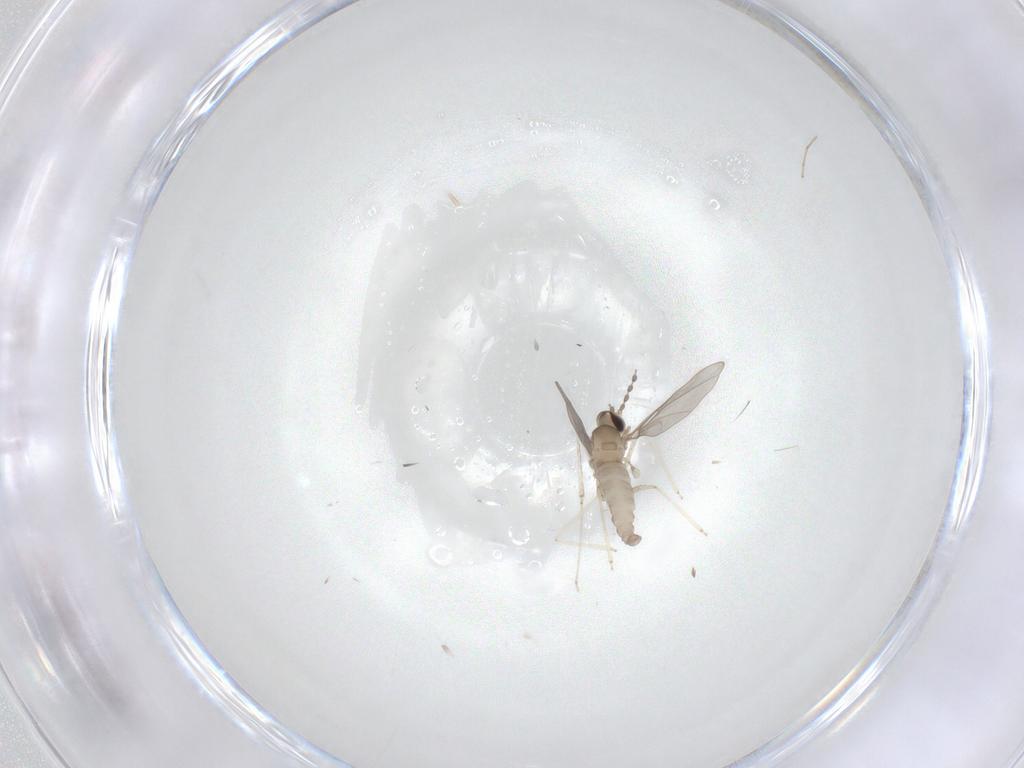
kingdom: Animalia
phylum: Arthropoda
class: Insecta
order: Diptera
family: Cecidomyiidae
